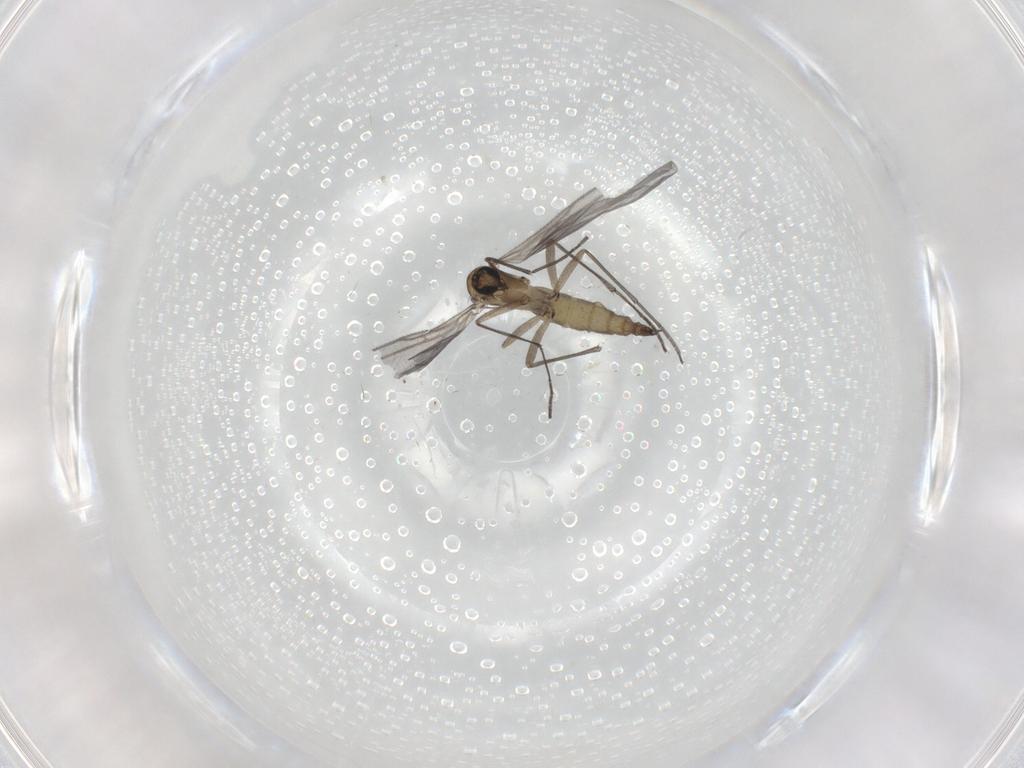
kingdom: Animalia
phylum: Arthropoda
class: Insecta
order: Diptera
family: Sciaridae
